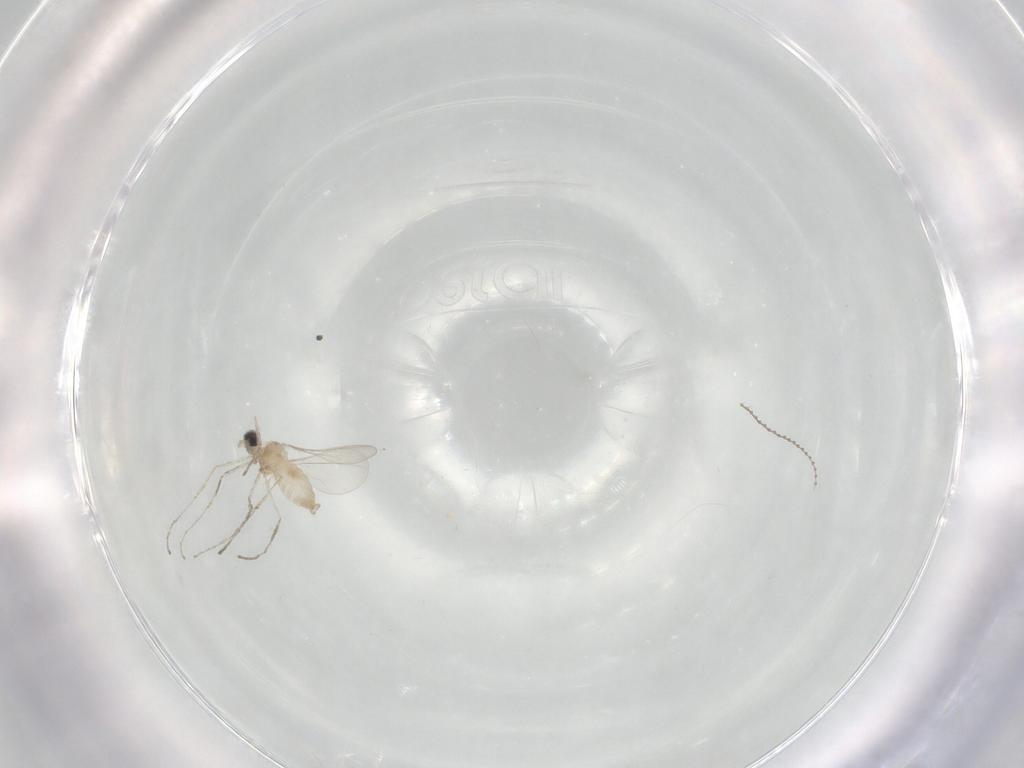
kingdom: Animalia
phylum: Arthropoda
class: Insecta
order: Diptera
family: Cecidomyiidae
